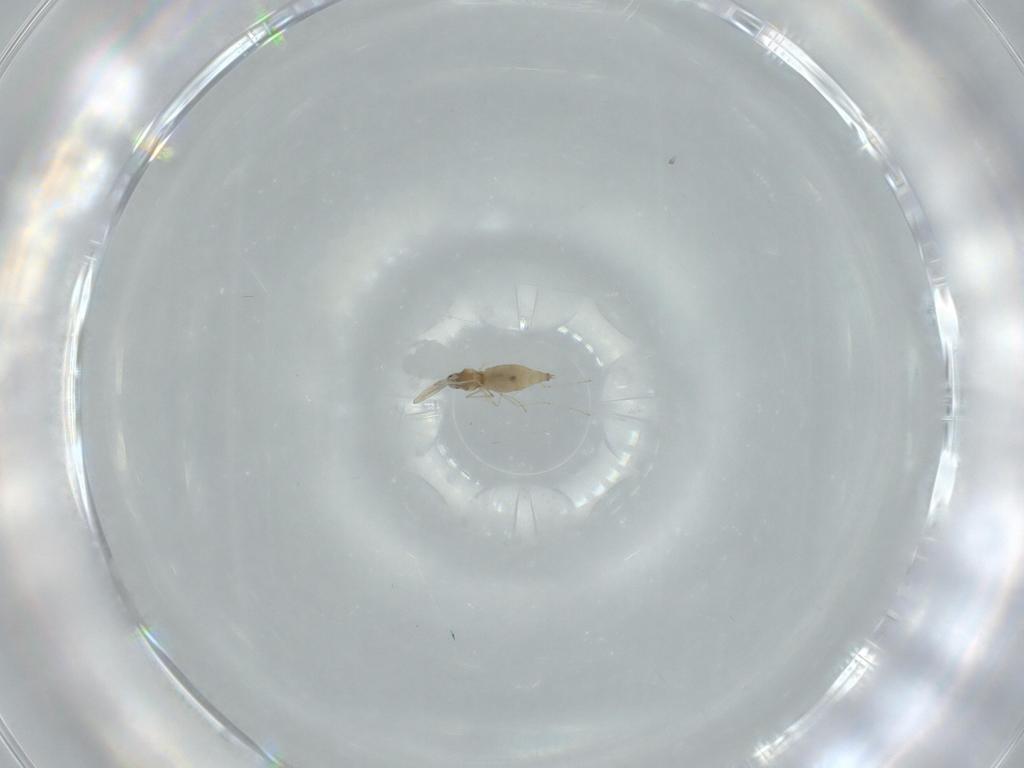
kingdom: Animalia
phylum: Arthropoda
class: Insecta
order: Diptera
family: Cecidomyiidae
